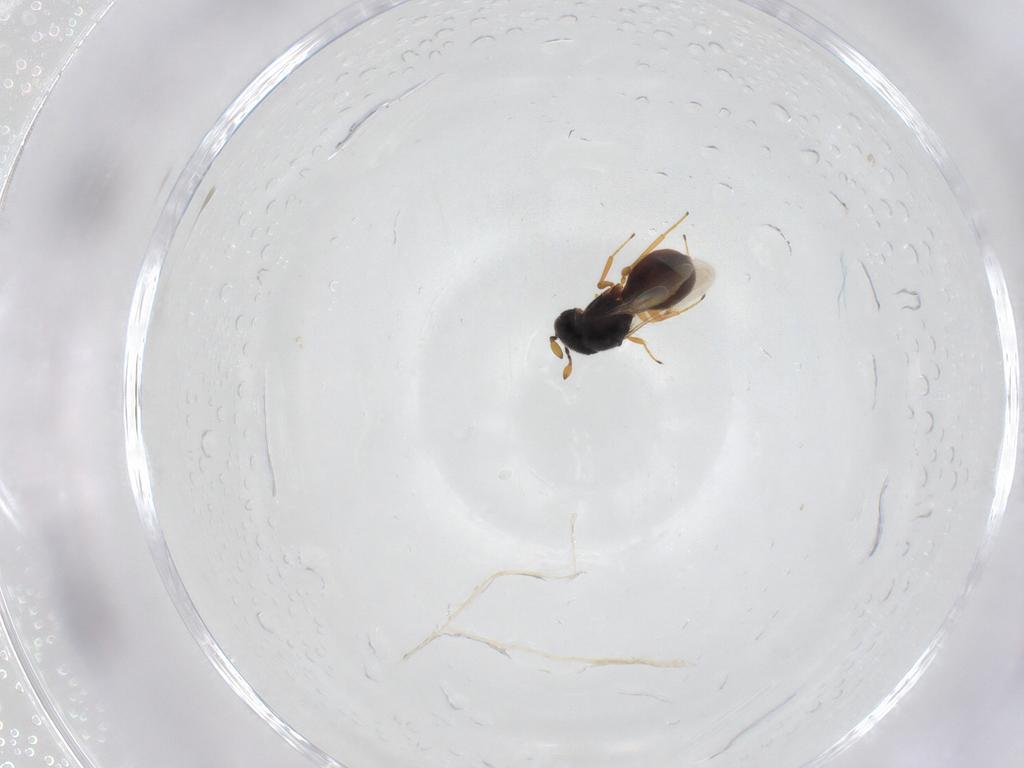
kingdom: Animalia
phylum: Arthropoda
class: Insecta
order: Hymenoptera
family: Scelionidae
